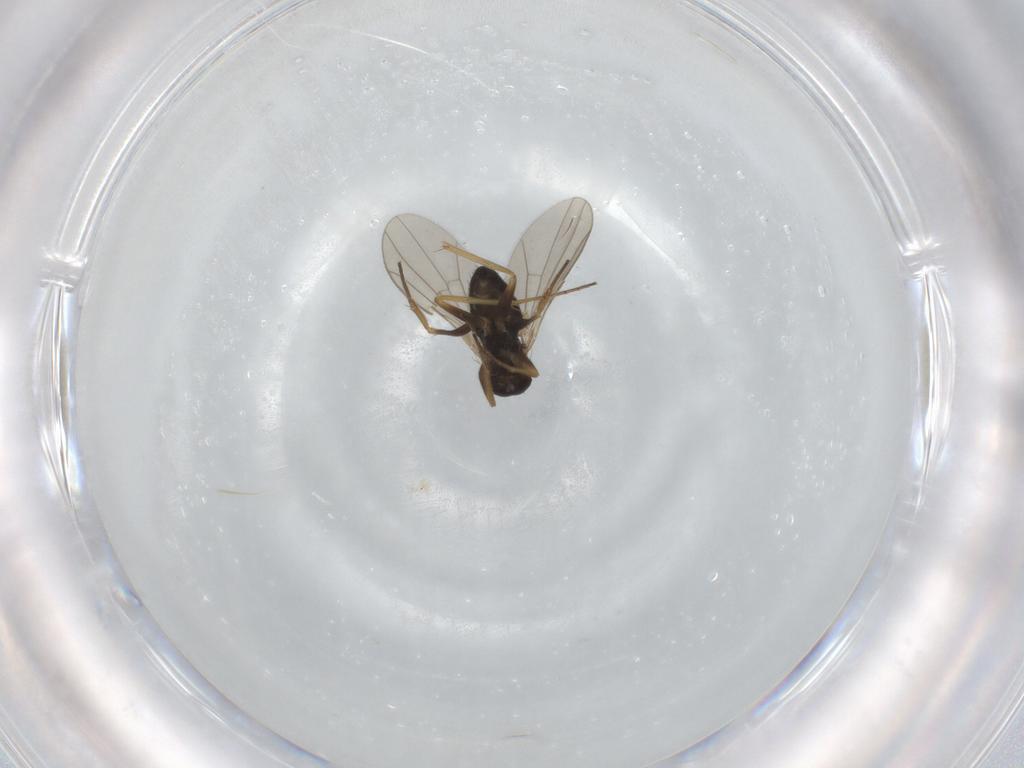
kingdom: Animalia
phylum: Arthropoda
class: Insecta
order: Diptera
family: Dolichopodidae
